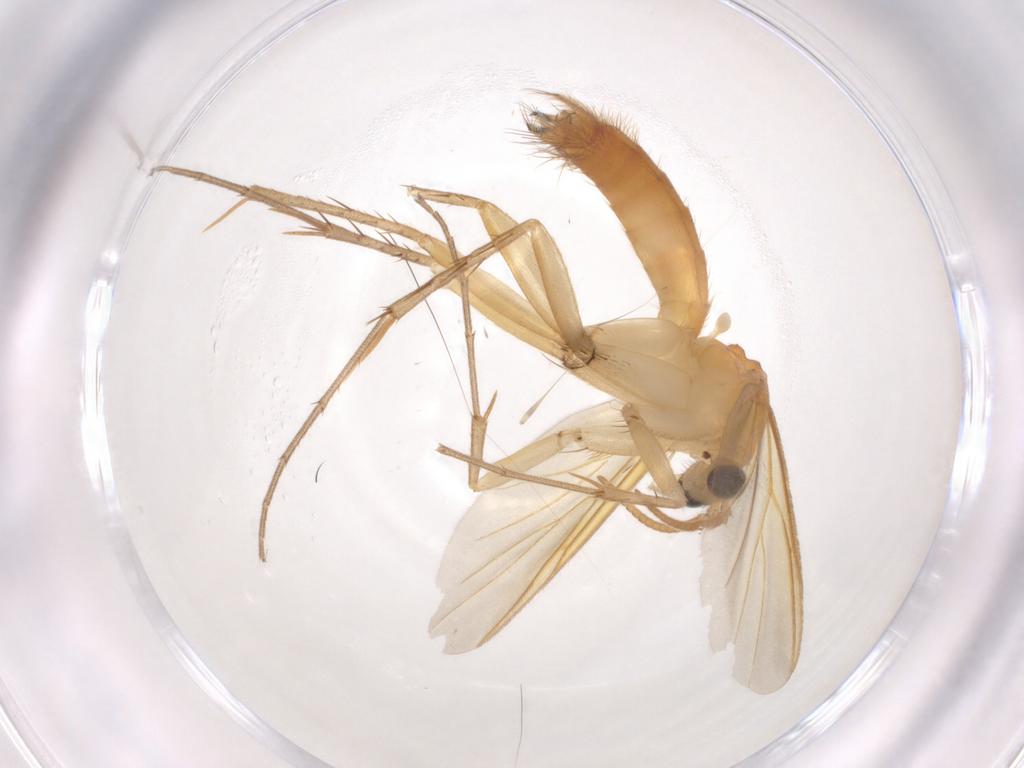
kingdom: Animalia
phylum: Arthropoda
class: Insecta
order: Diptera
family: Mycetophilidae
